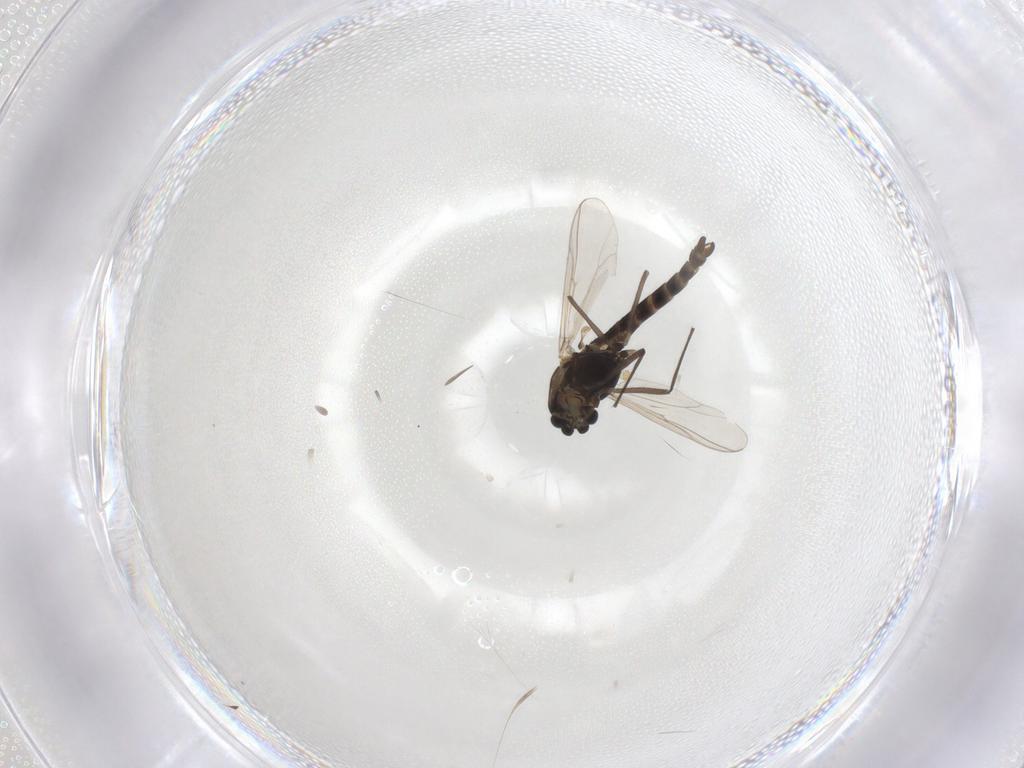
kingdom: Animalia
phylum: Arthropoda
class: Insecta
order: Diptera
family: Chironomidae
